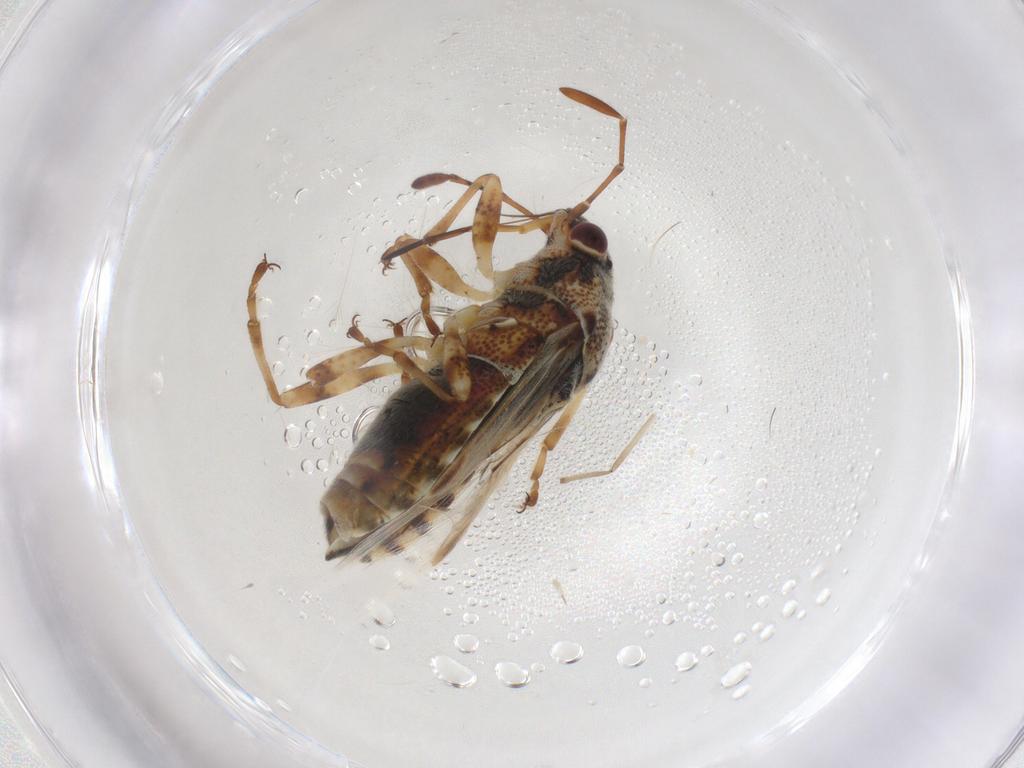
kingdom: Animalia
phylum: Arthropoda
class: Insecta
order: Hemiptera
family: Lygaeidae
